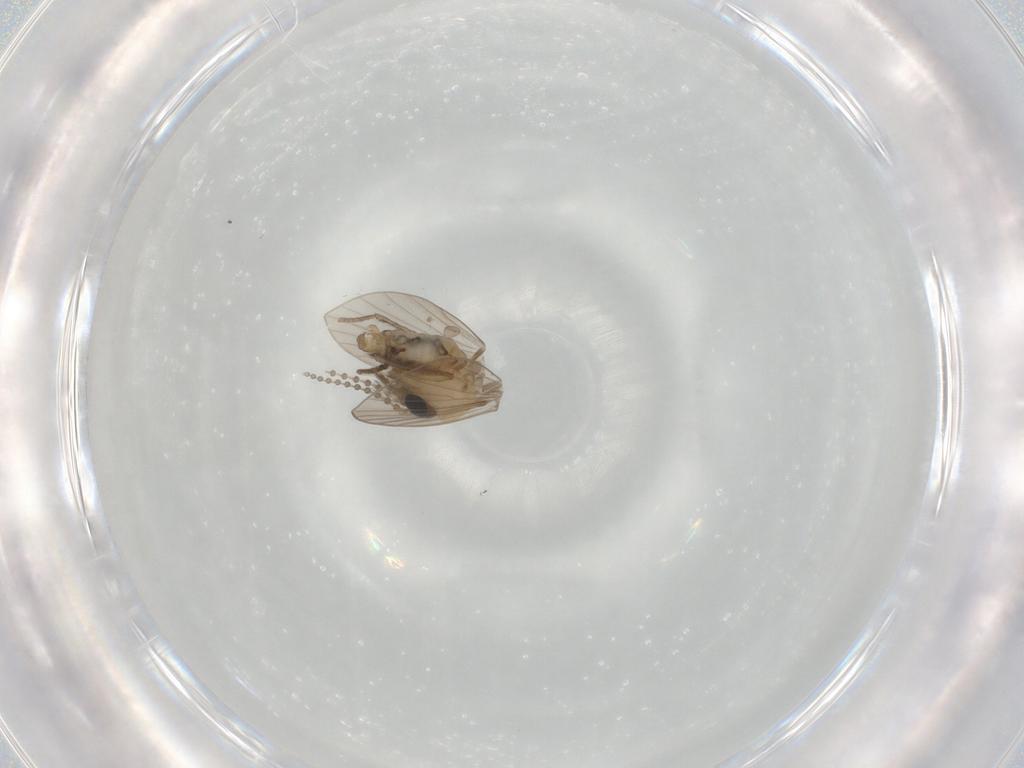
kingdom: Animalia
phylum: Arthropoda
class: Insecta
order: Diptera
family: Psychodidae
